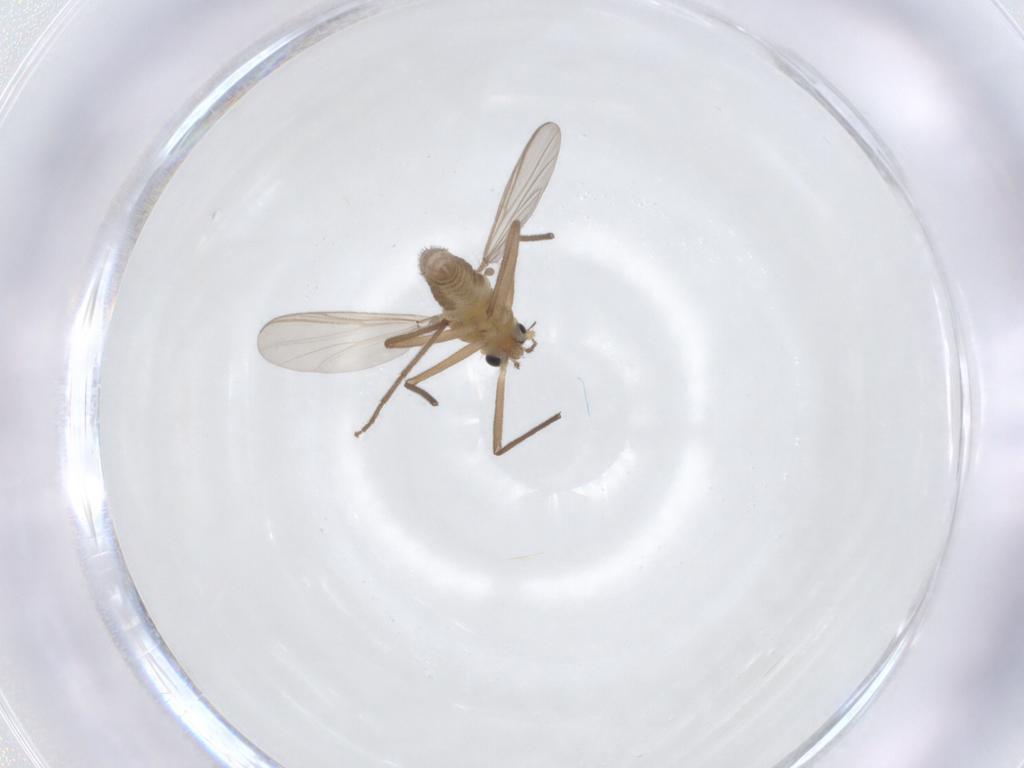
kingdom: Animalia
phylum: Arthropoda
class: Insecta
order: Diptera
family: Chironomidae
